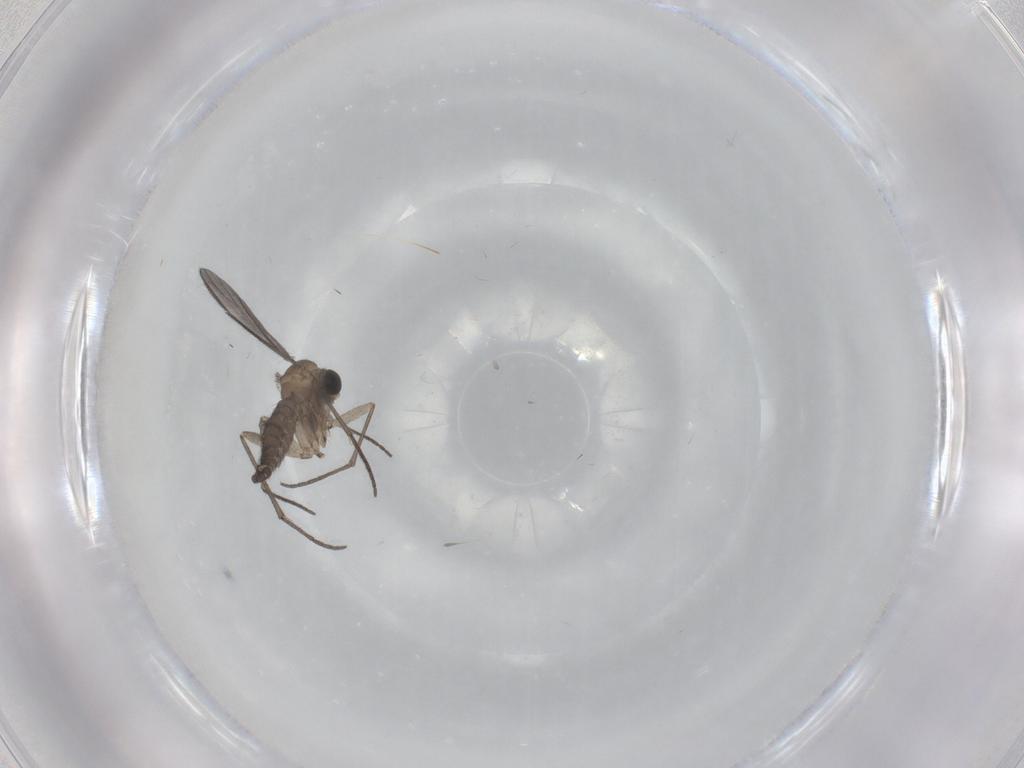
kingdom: Animalia
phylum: Arthropoda
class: Insecta
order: Diptera
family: Sciaridae
